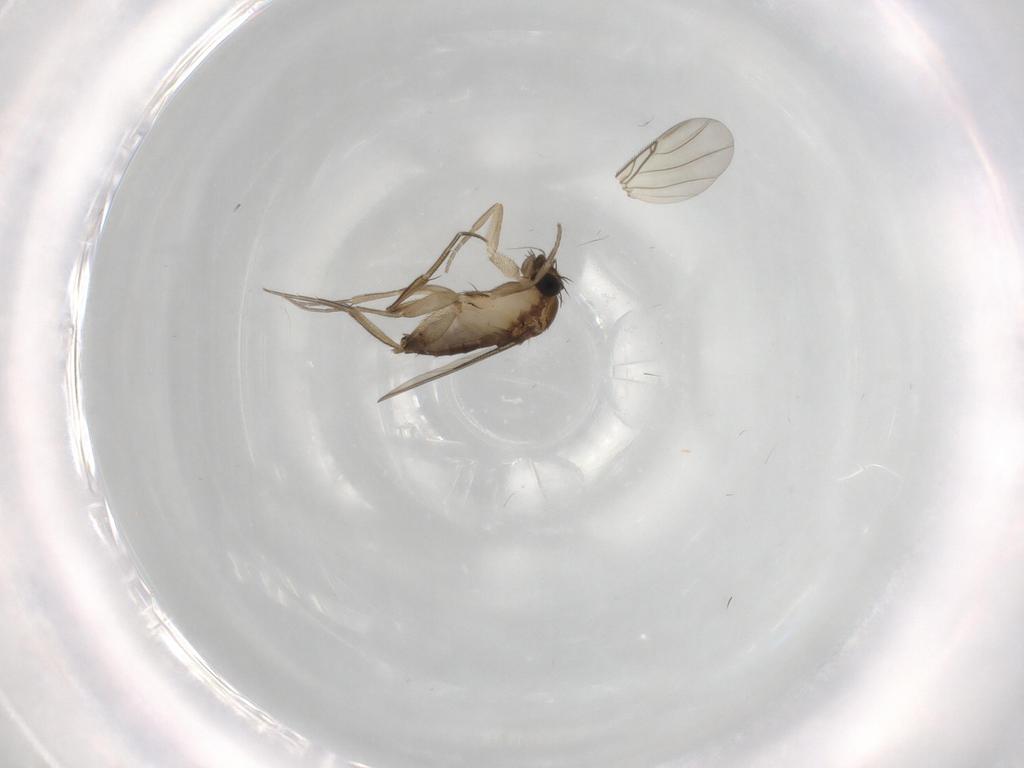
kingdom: Animalia
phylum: Arthropoda
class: Insecta
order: Diptera
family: Phoridae
